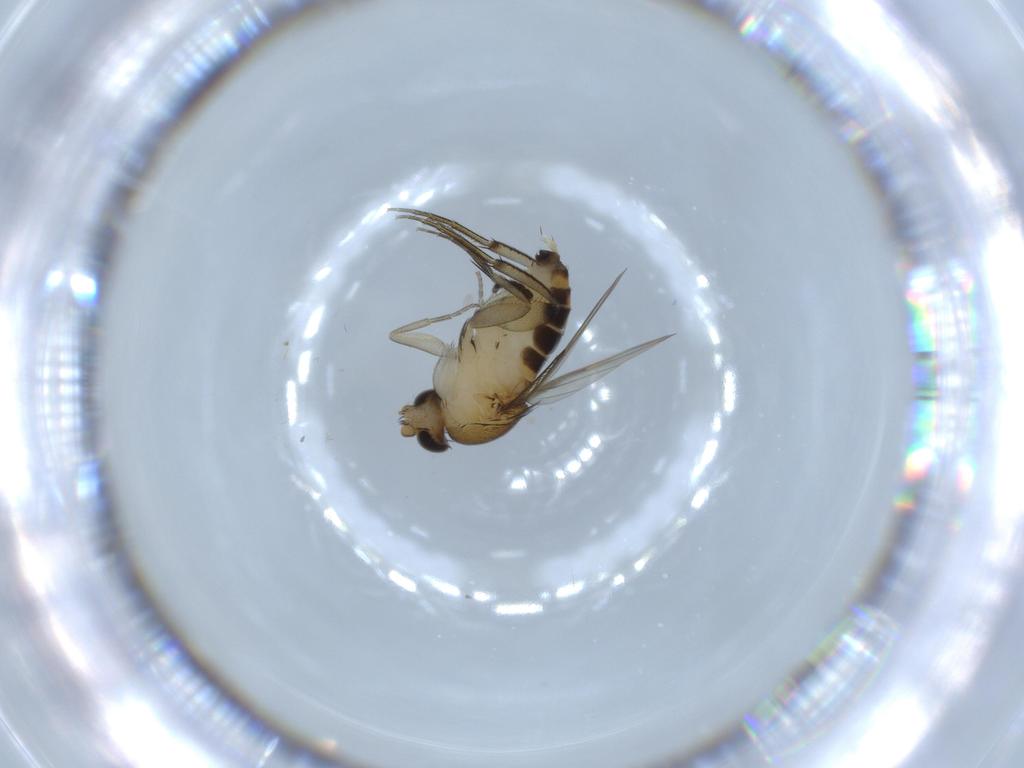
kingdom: Animalia
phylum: Arthropoda
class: Insecta
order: Diptera
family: Phoridae
